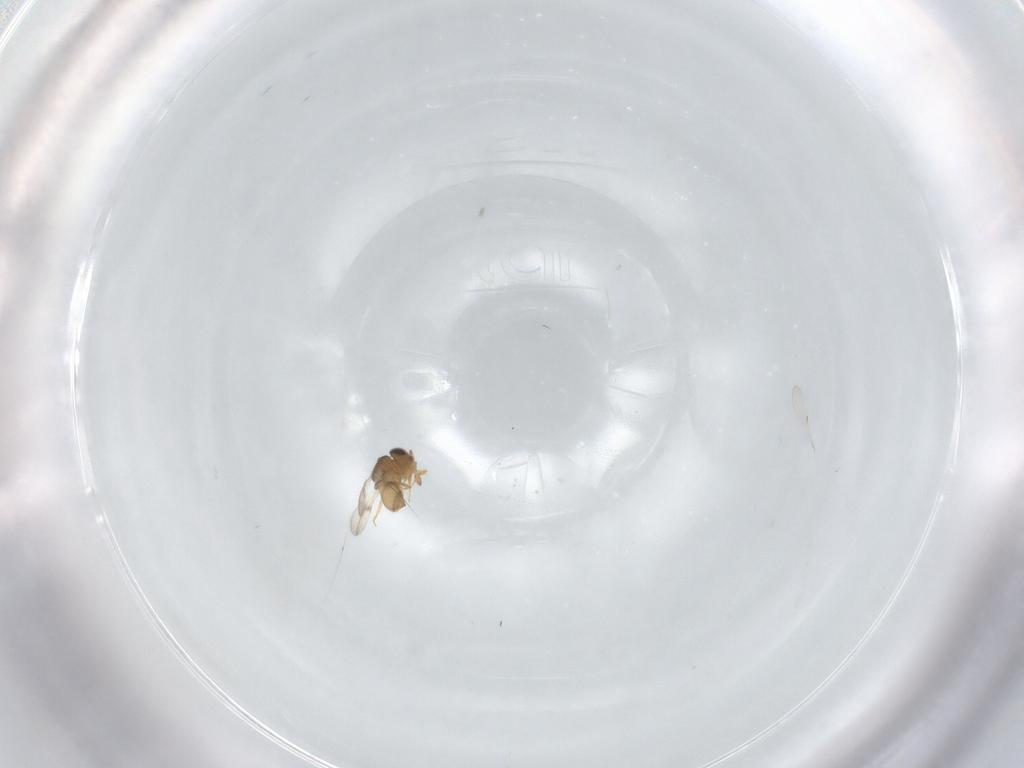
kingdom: Animalia
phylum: Arthropoda
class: Insecta
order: Hymenoptera
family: Scelionidae
